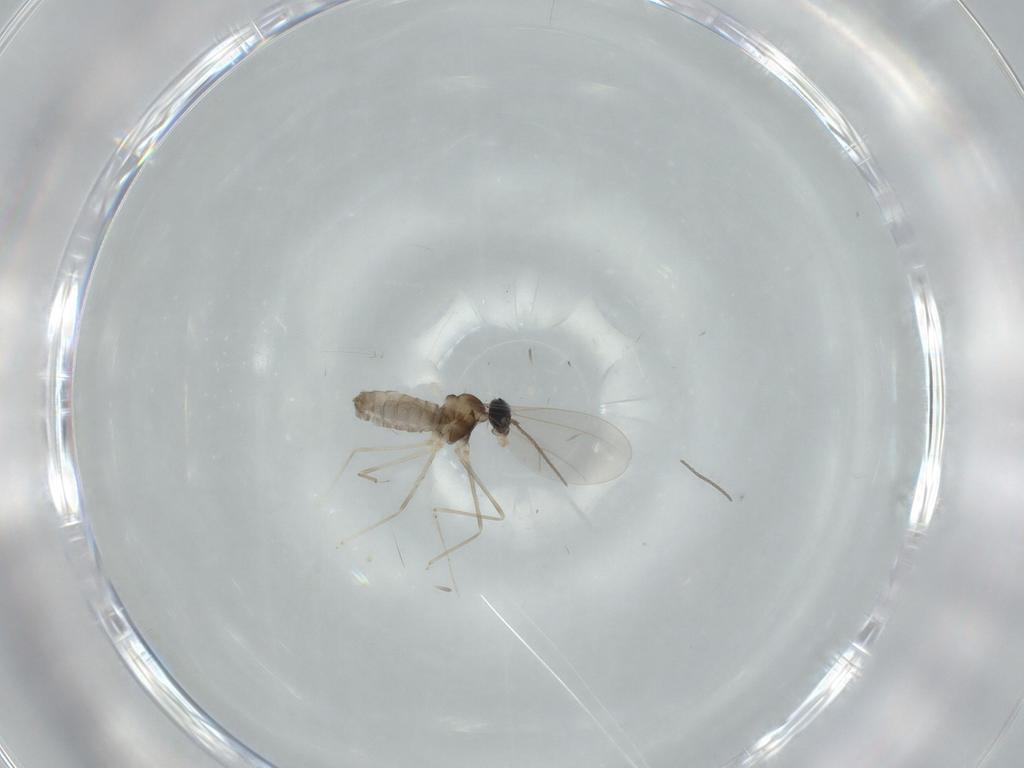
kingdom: Animalia
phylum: Arthropoda
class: Insecta
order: Diptera
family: Cecidomyiidae
